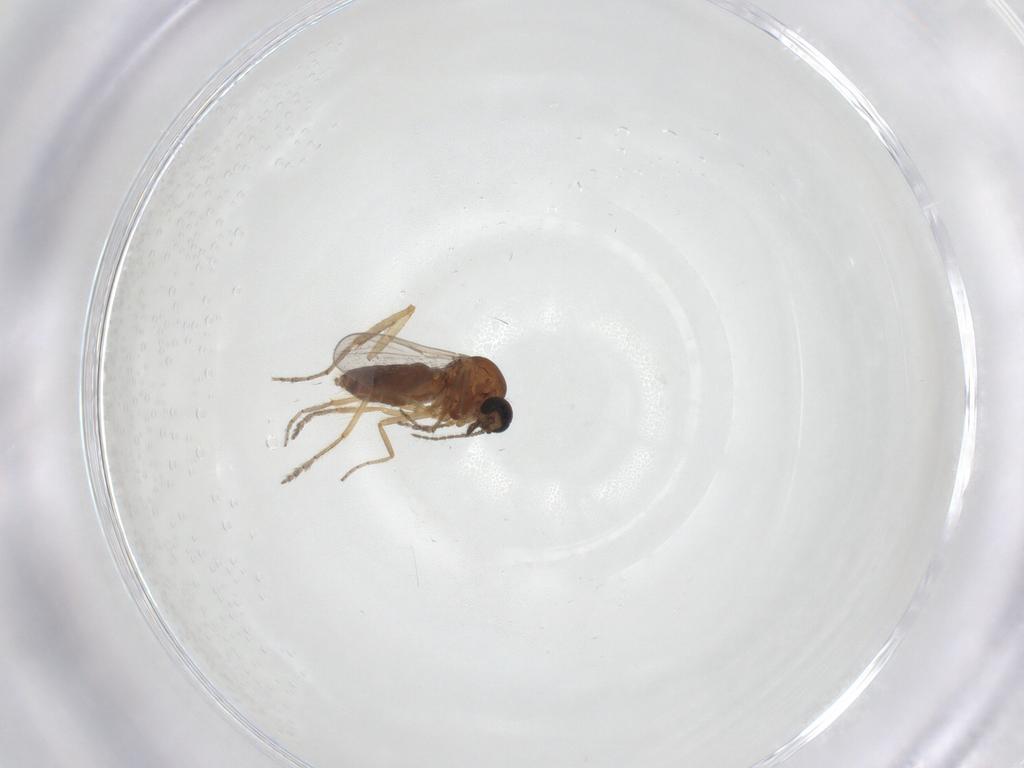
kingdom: Animalia
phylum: Arthropoda
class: Insecta
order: Diptera
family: Ceratopogonidae
